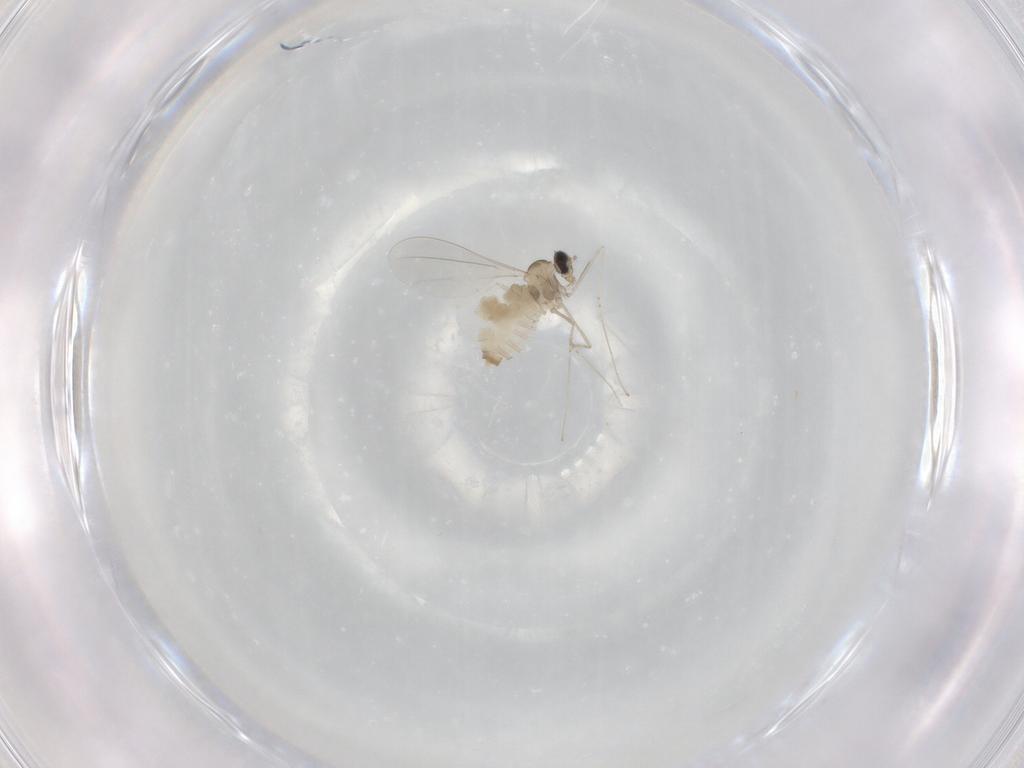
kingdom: Animalia
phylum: Arthropoda
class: Insecta
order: Diptera
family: Cecidomyiidae
